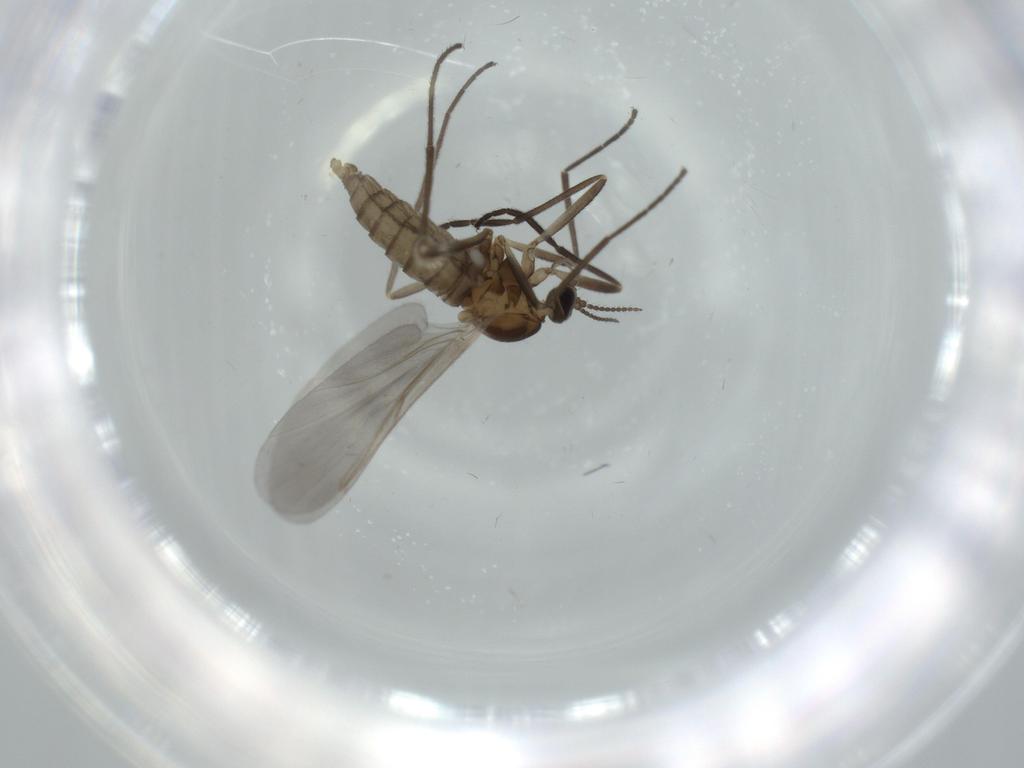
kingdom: Animalia
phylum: Arthropoda
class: Insecta
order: Diptera
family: Cecidomyiidae
